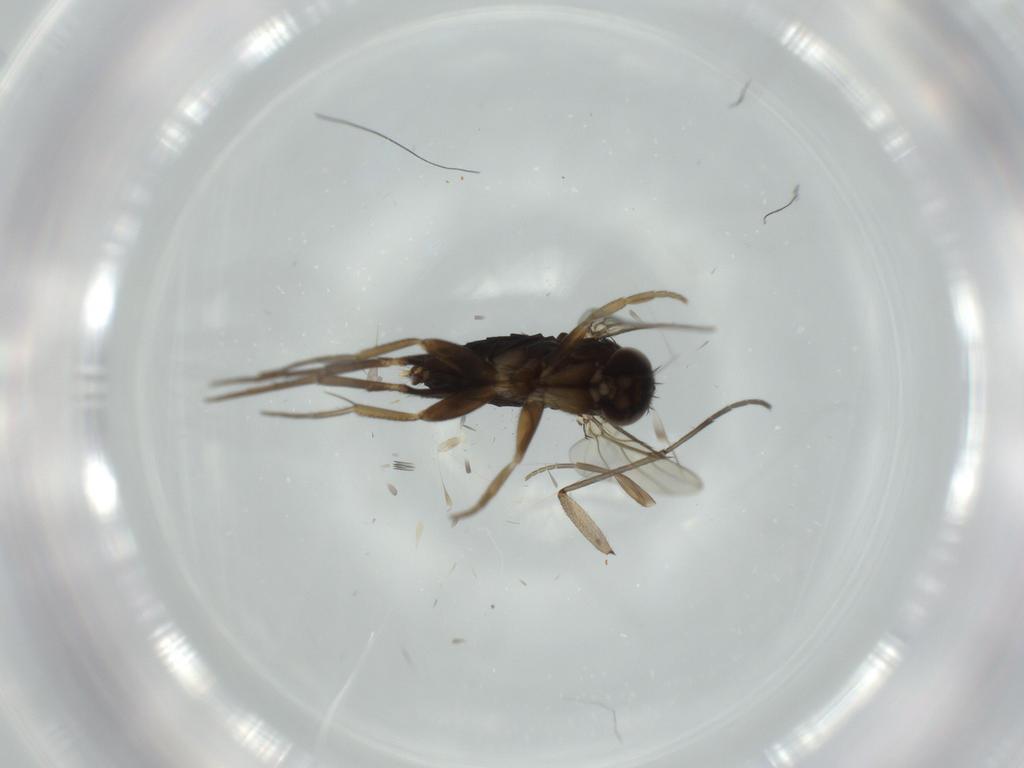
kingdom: Animalia
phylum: Arthropoda
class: Insecta
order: Diptera
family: Phoridae
